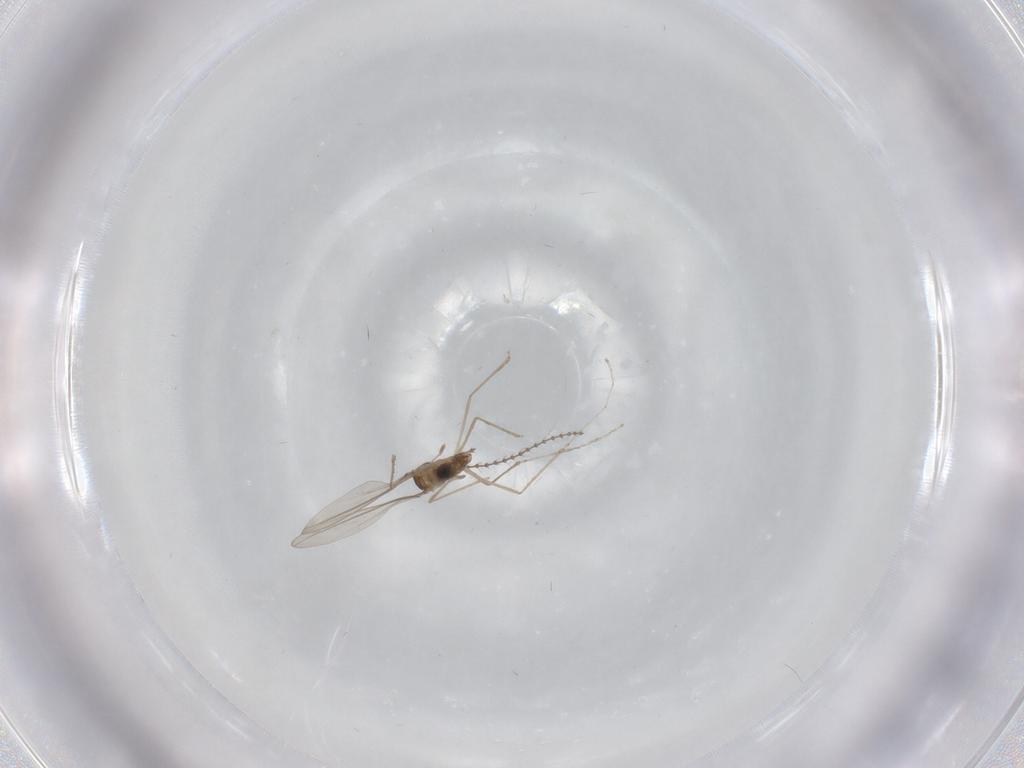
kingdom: Animalia
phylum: Arthropoda
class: Insecta
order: Diptera
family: Cecidomyiidae
